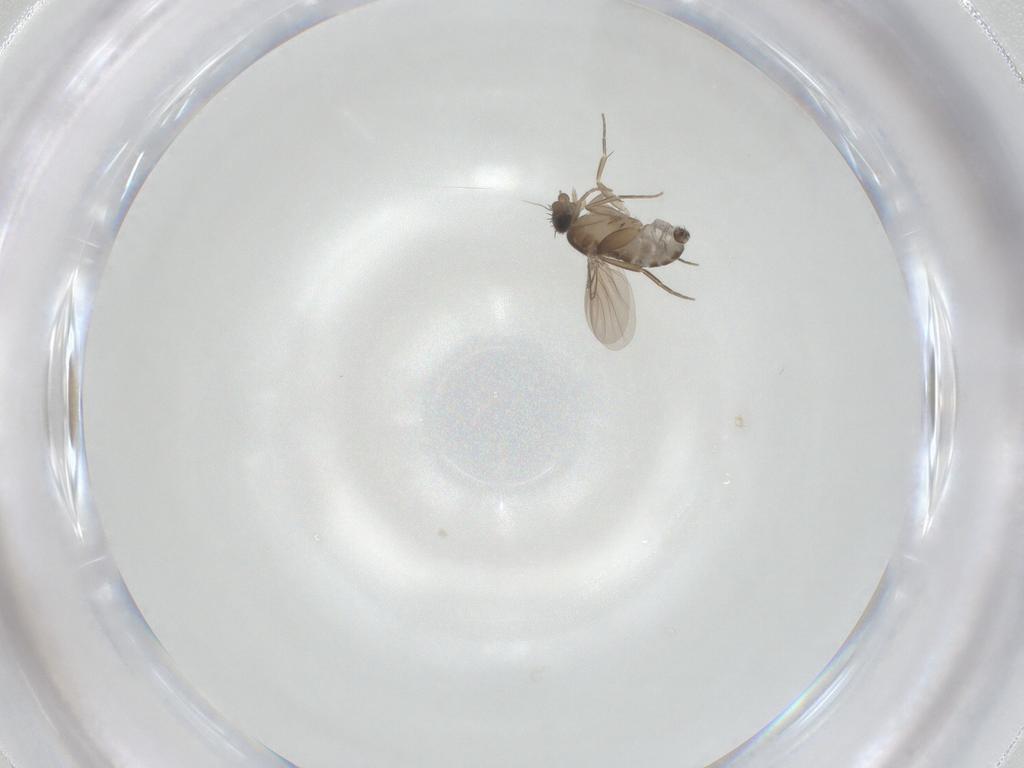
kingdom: Animalia
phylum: Arthropoda
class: Insecta
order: Diptera
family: Phoridae
